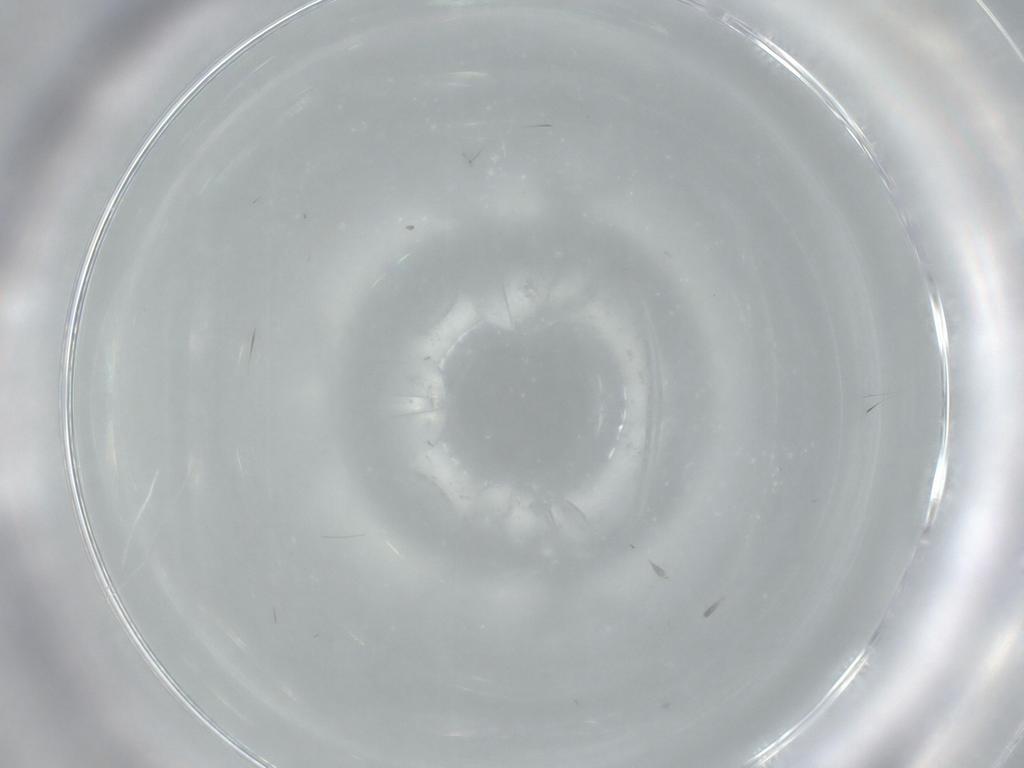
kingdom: Animalia
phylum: Arthropoda
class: Insecta
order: Hymenoptera
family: Trichogrammatidae
